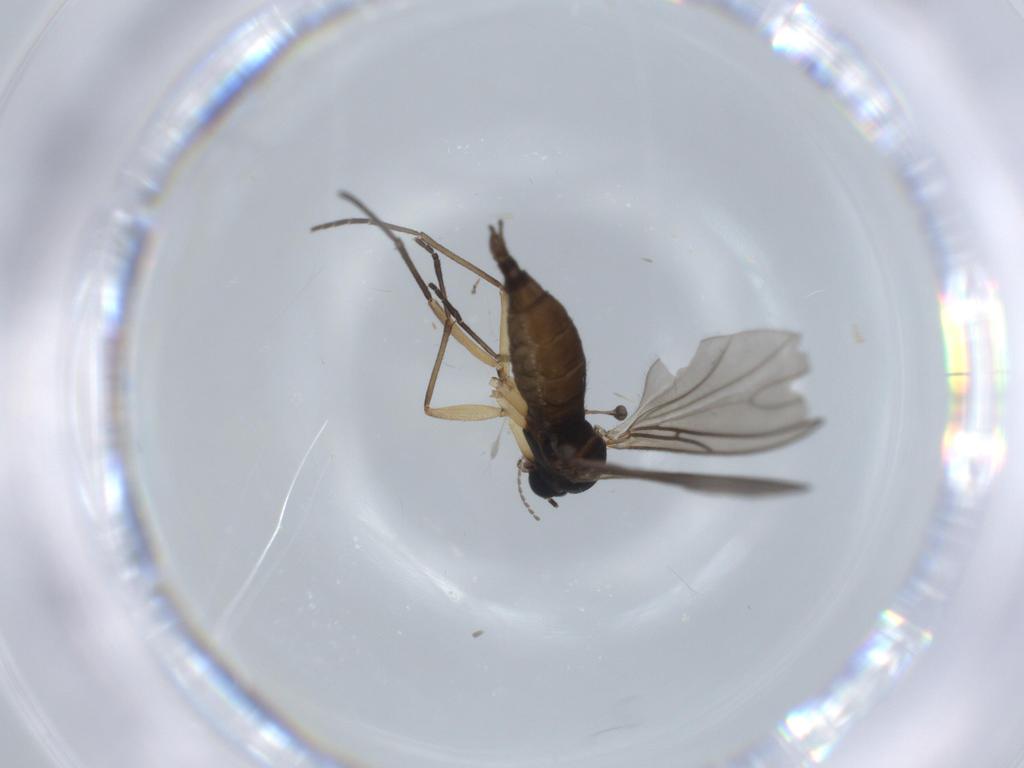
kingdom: Animalia
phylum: Arthropoda
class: Insecta
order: Diptera
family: Sciaridae
